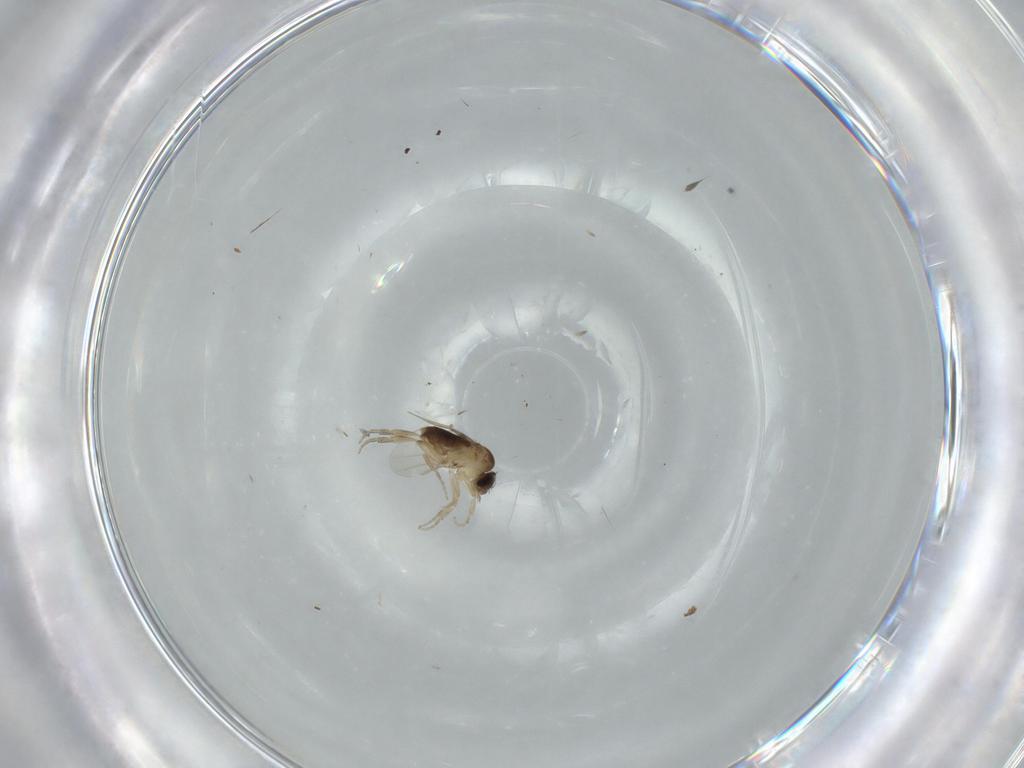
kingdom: Animalia
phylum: Arthropoda
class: Insecta
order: Diptera
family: Phoridae
